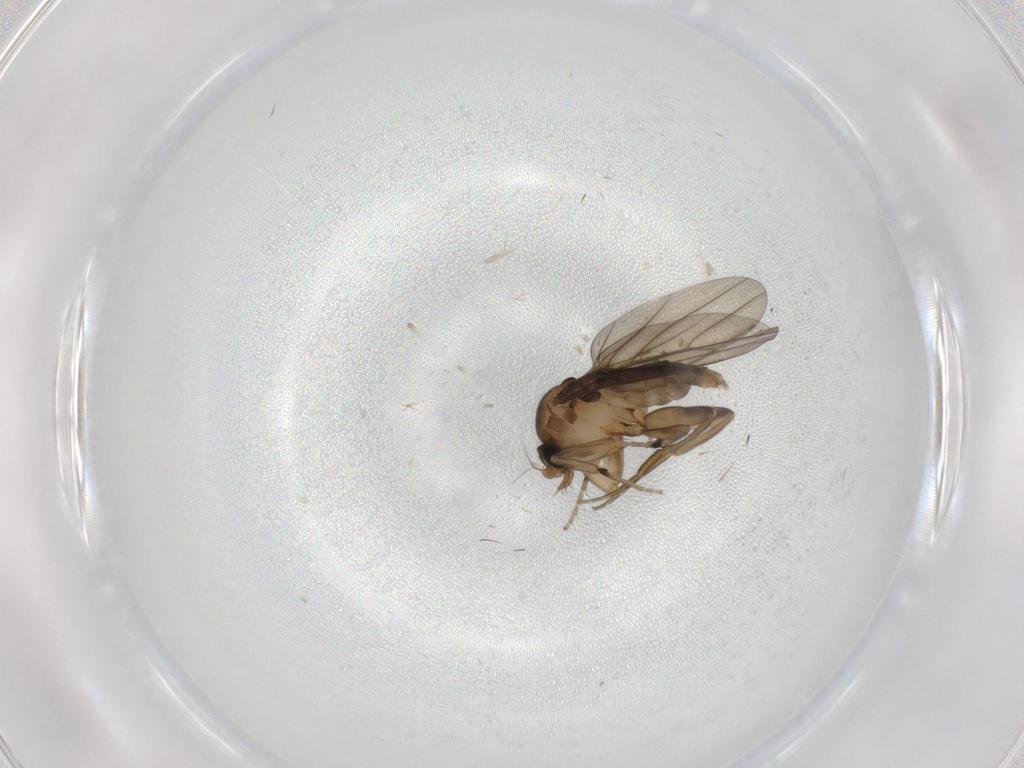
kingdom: Animalia
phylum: Arthropoda
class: Insecta
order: Diptera
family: Phoridae
